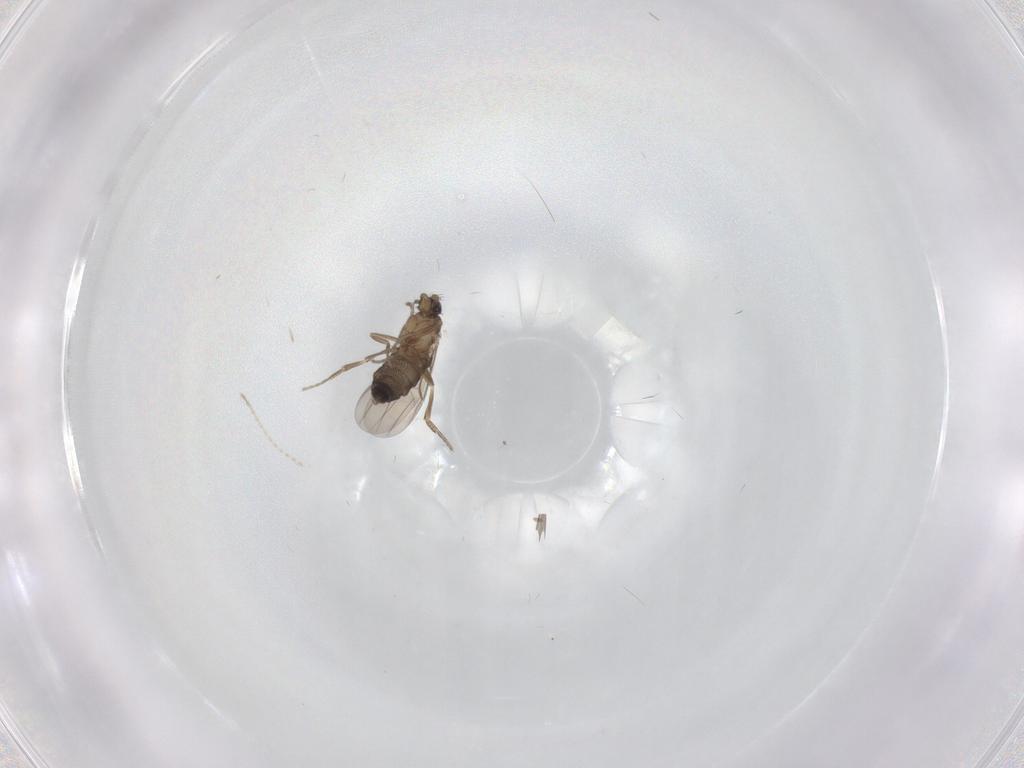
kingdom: Animalia
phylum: Arthropoda
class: Insecta
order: Diptera
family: Cecidomyiidae
